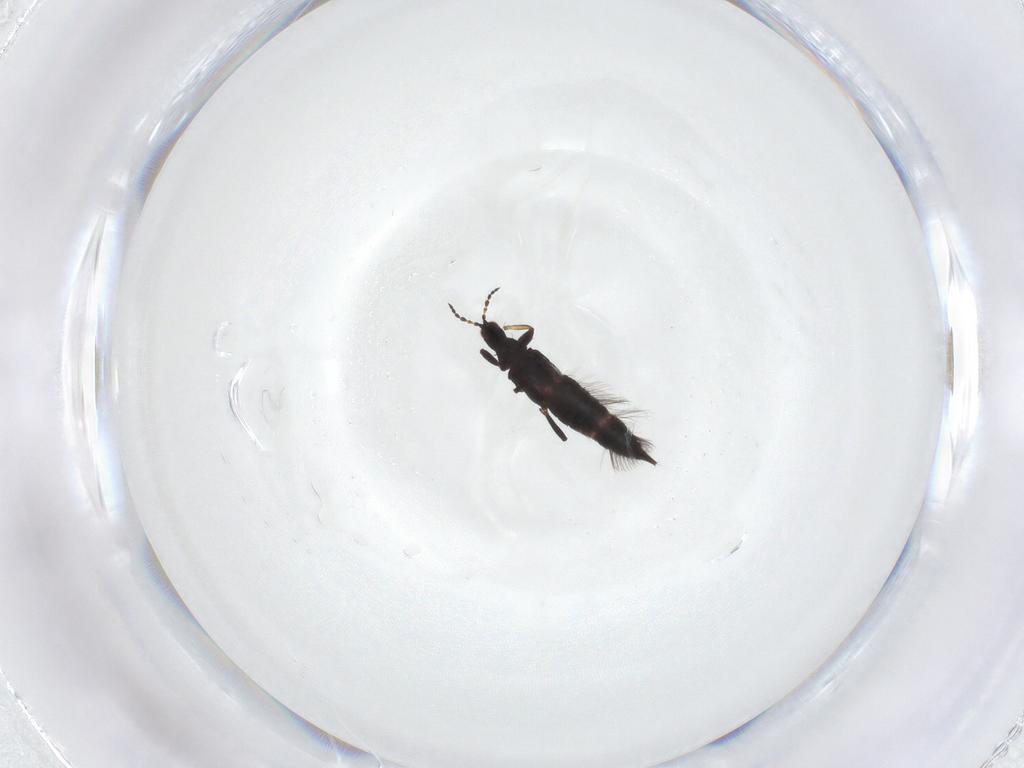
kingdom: Animalia
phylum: Arthropoda
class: Insecta
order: Thysanoptera
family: Phlaeothripidae
